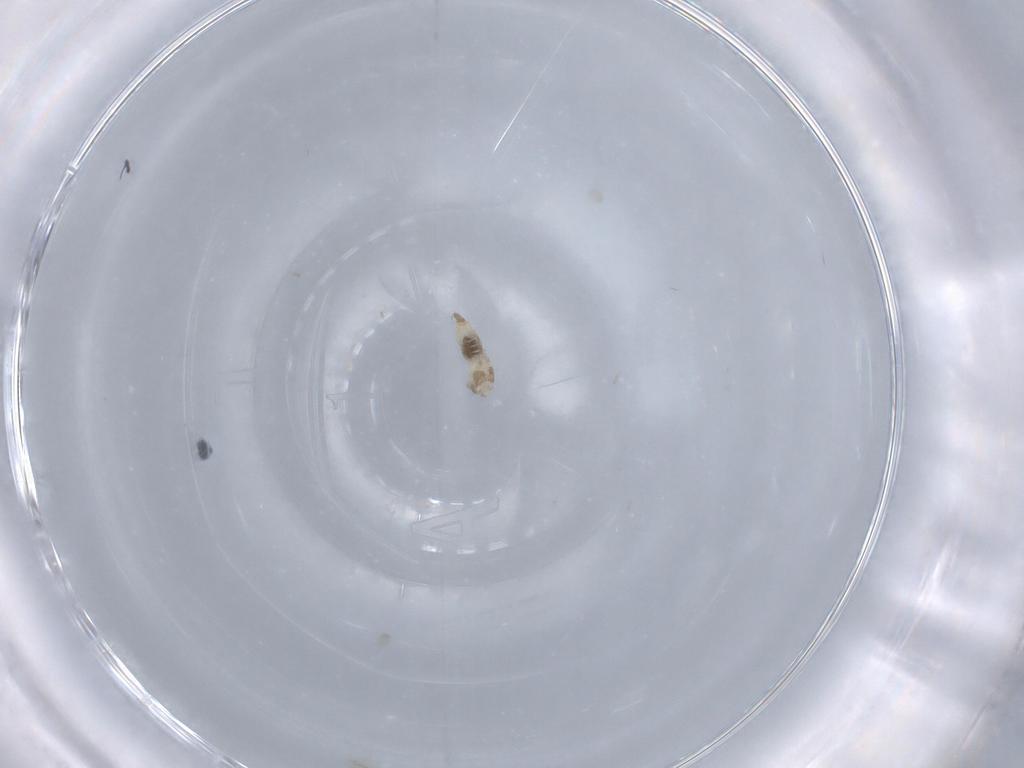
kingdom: Animalia
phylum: Arthropoda
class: Insecta
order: Diptera
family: Cecidomyiidae
